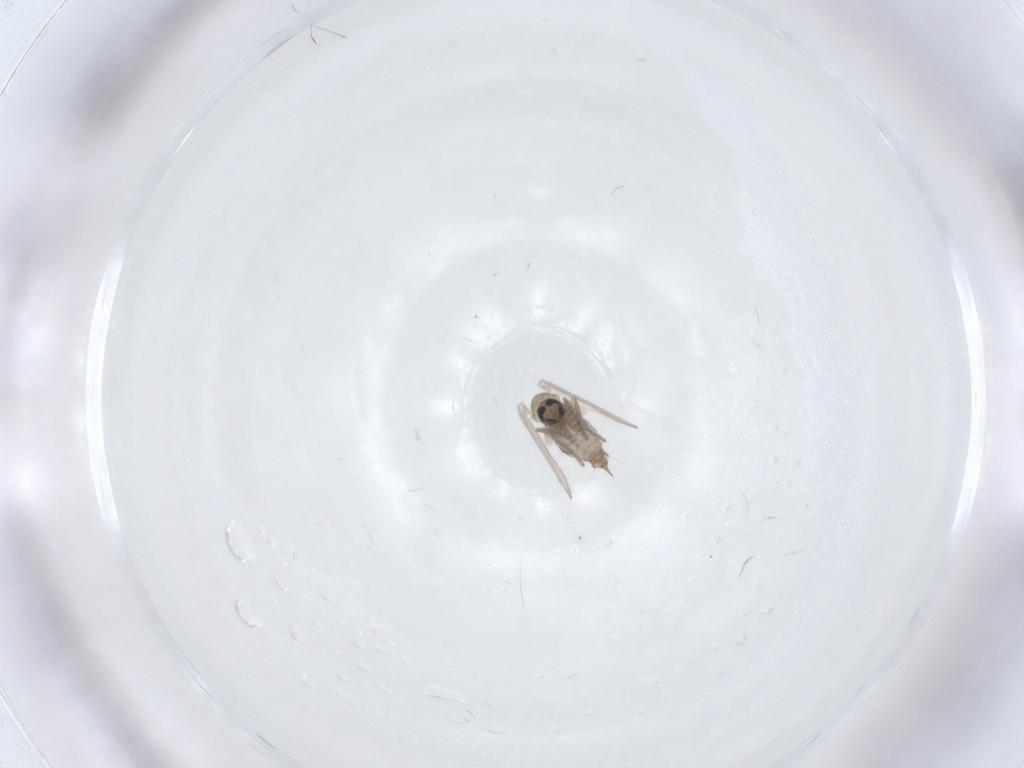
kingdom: Animalia
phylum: Arthropoda
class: Insecta
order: Diptera
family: Psychodidae
